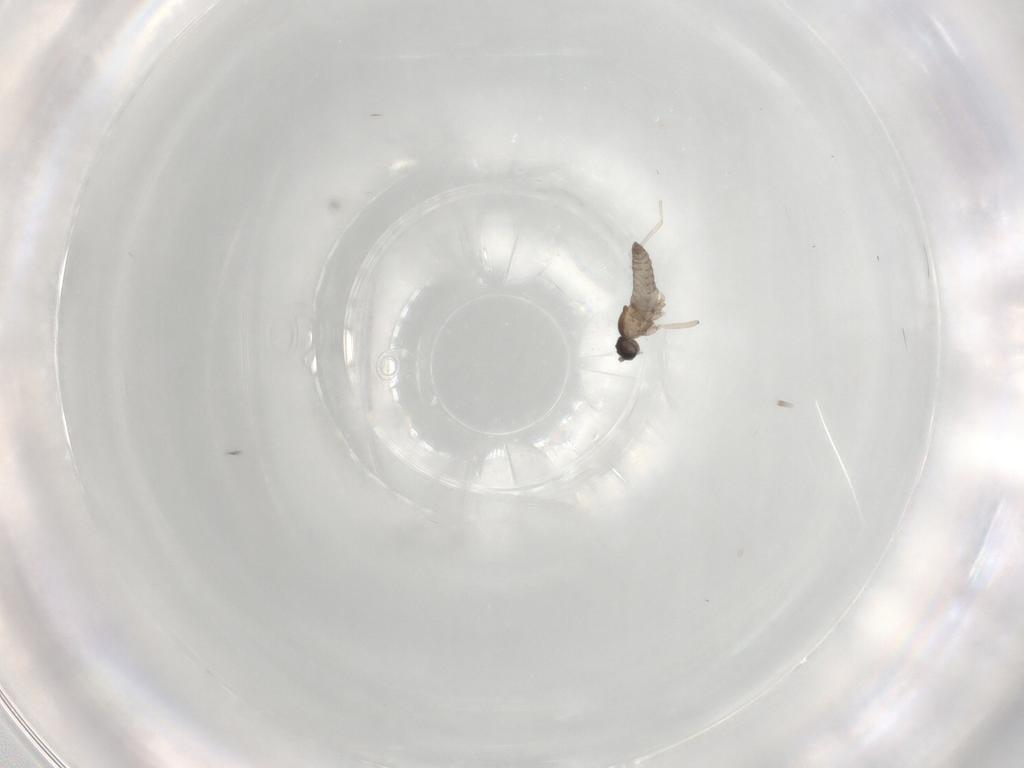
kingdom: Animalia
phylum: Arthropoda
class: Insecta
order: Diptera
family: Cecidomyiidae
